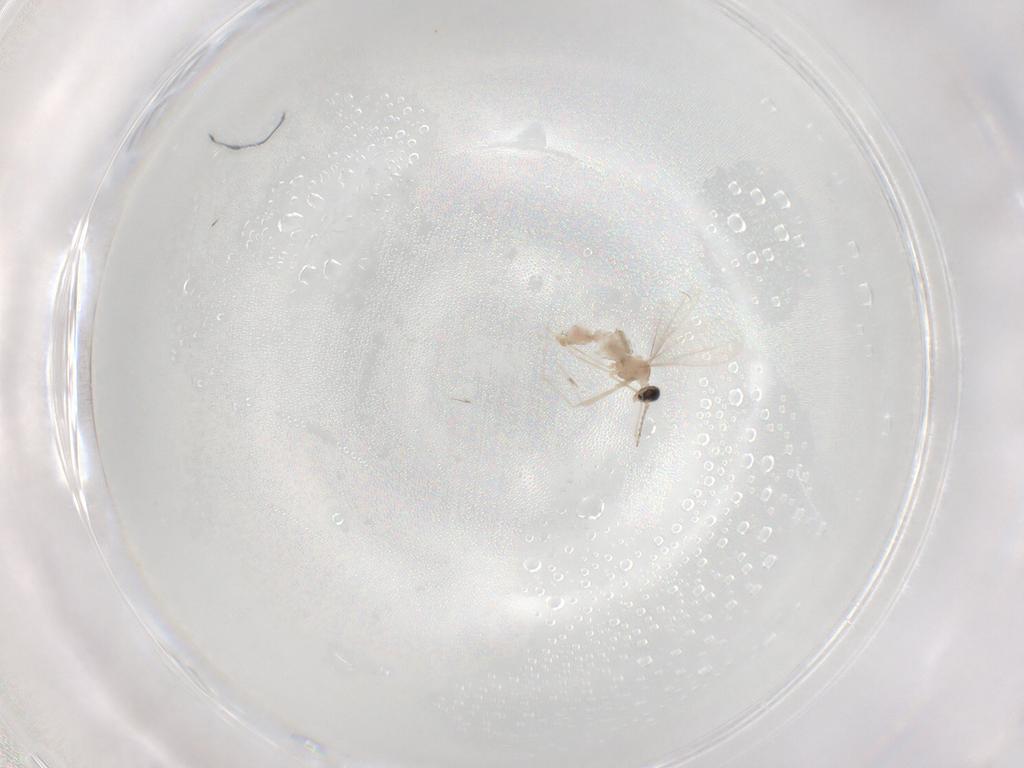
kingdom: Animalia
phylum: Arthropoda
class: Insecta
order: Diptera
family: Cecidomyiidae
